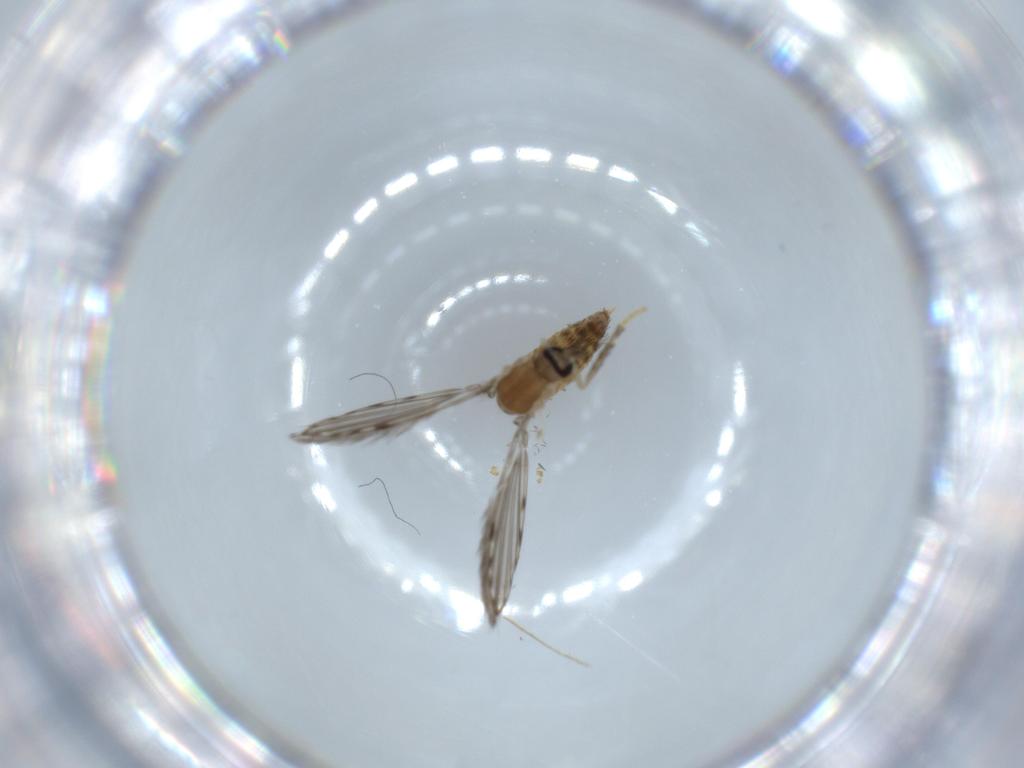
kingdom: Animalia
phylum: Arthropoda
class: Insecta
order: Diptera
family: Psychodidae
